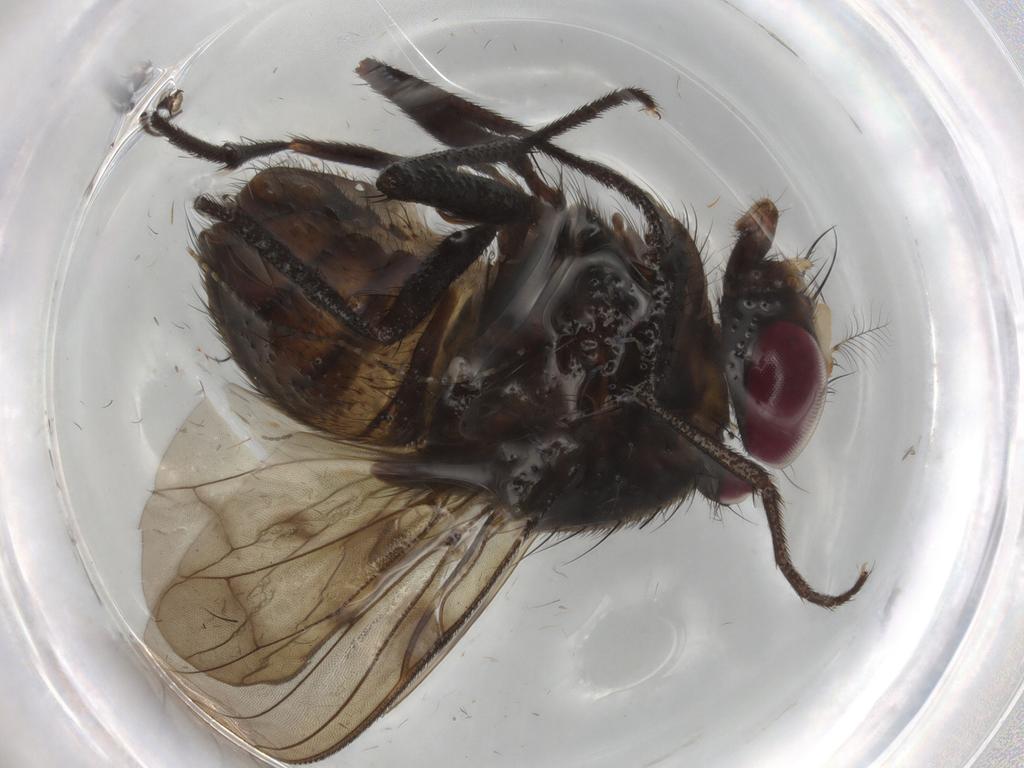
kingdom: Animalia
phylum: Arthropoda
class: Insecta
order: Diptera
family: Muscidae
